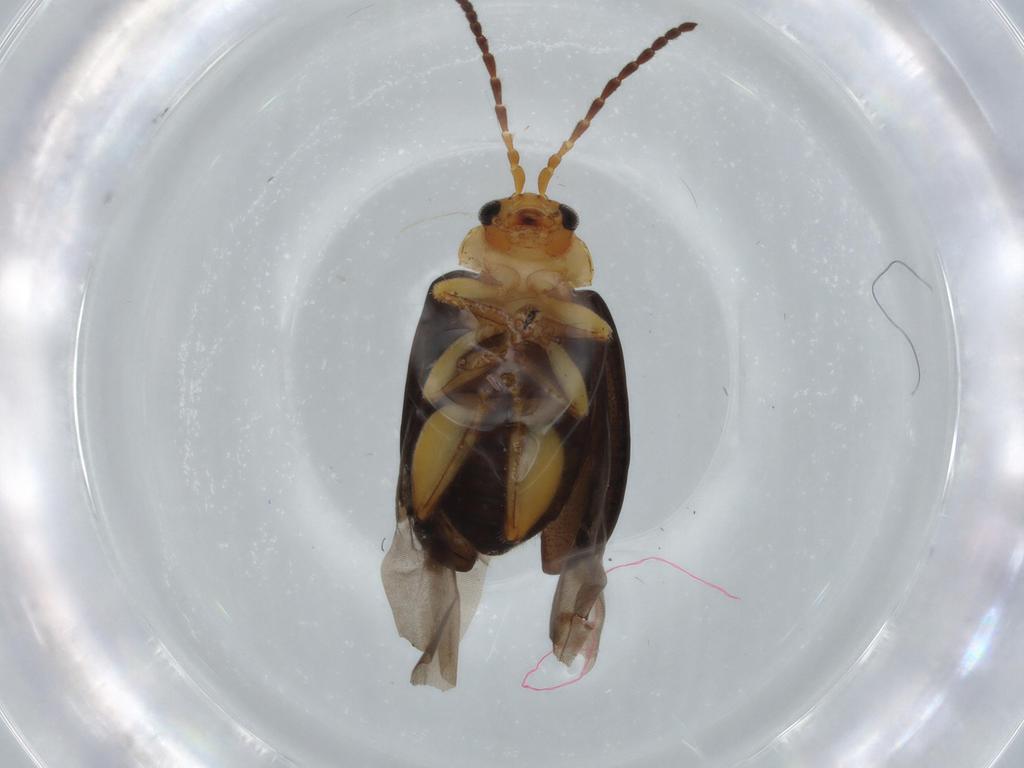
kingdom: Animalia
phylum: Arthropoda
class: Insecta
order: Coleoptera
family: Chrysomelidae
